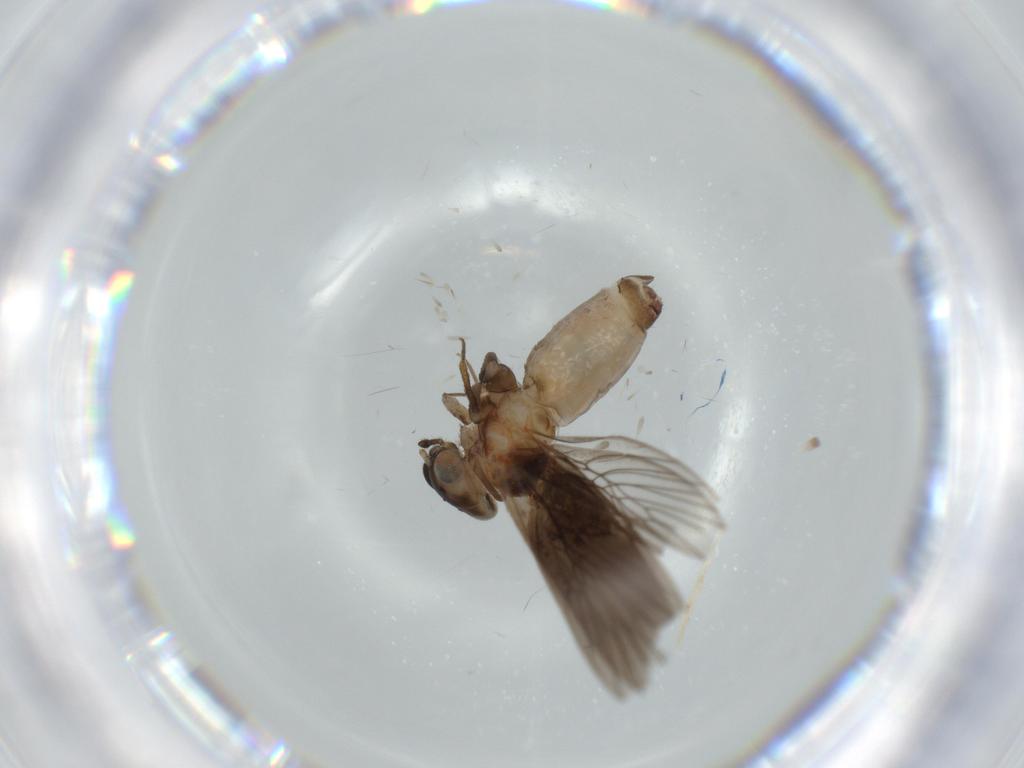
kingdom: Animalia
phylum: Arthropoda
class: Insecta
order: Psocodea
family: Lepidopsocidae
